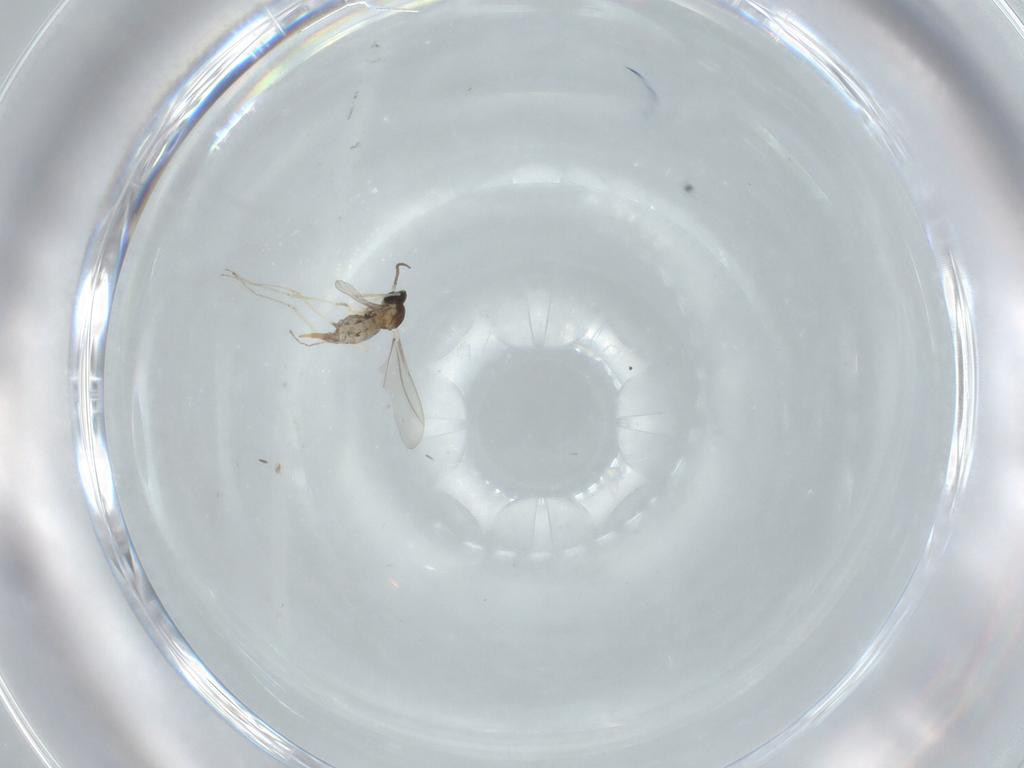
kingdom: Animalia
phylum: Arthropoda
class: Insecta
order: Diptera
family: Cecidomyiidae
